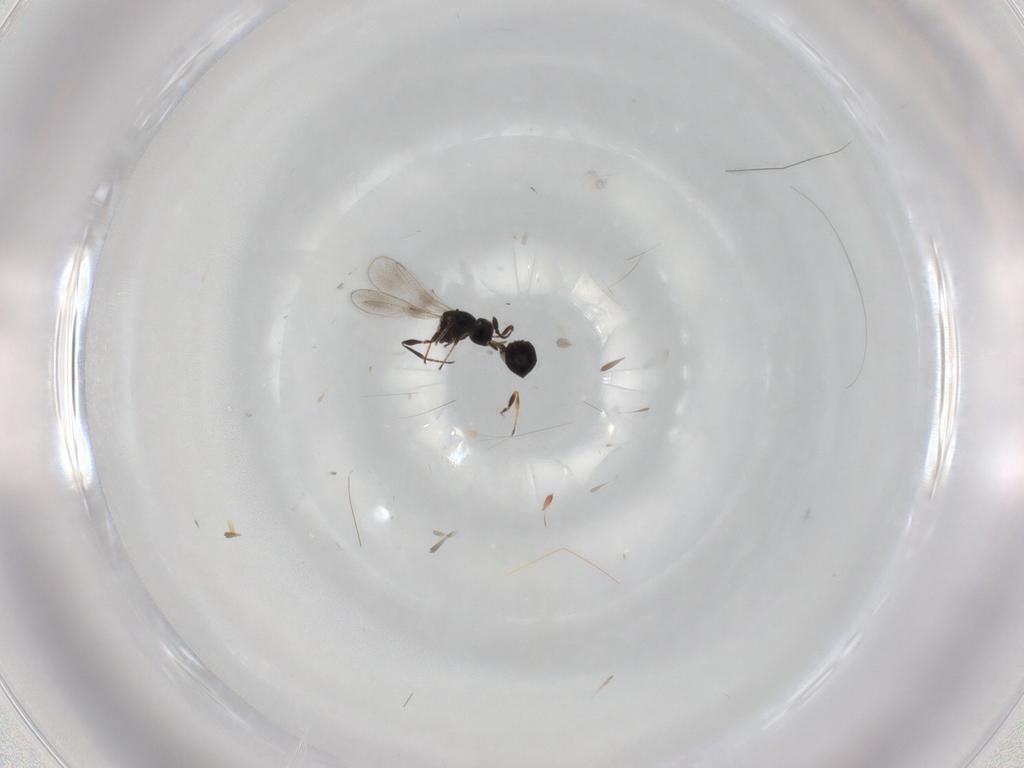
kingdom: Animalia
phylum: Arthropoda
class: Insecta
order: Hymenoptera
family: Platygastridae
